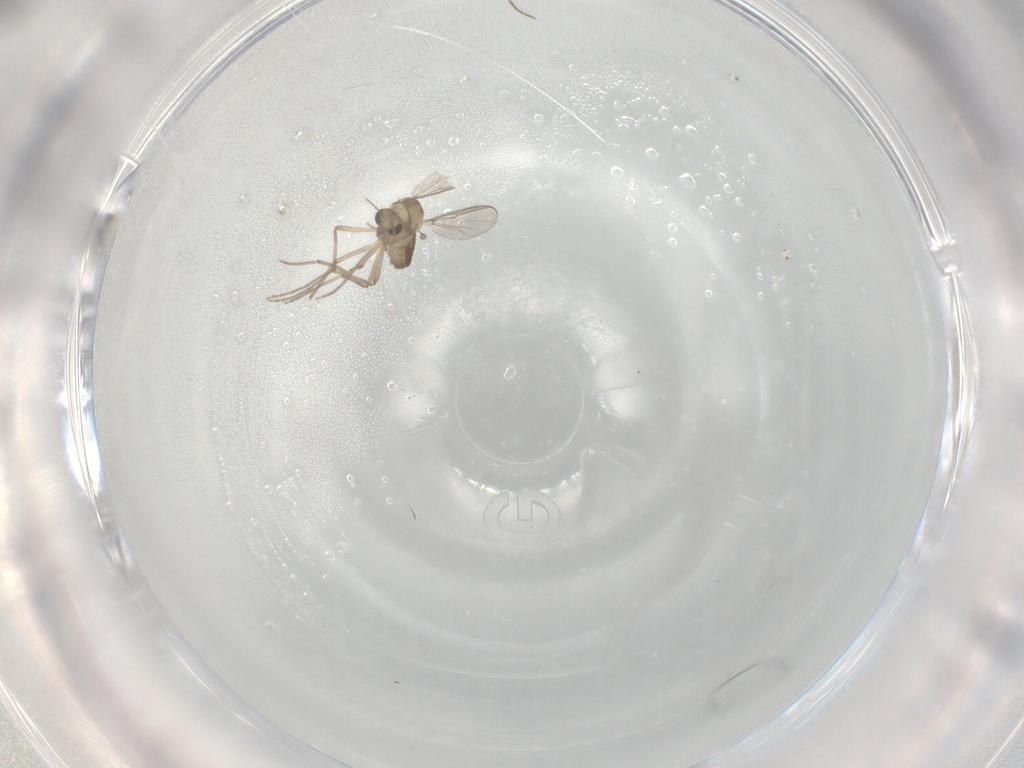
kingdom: Animalia
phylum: Arthropoda
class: Insecta
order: Diptera
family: Chironomidae
